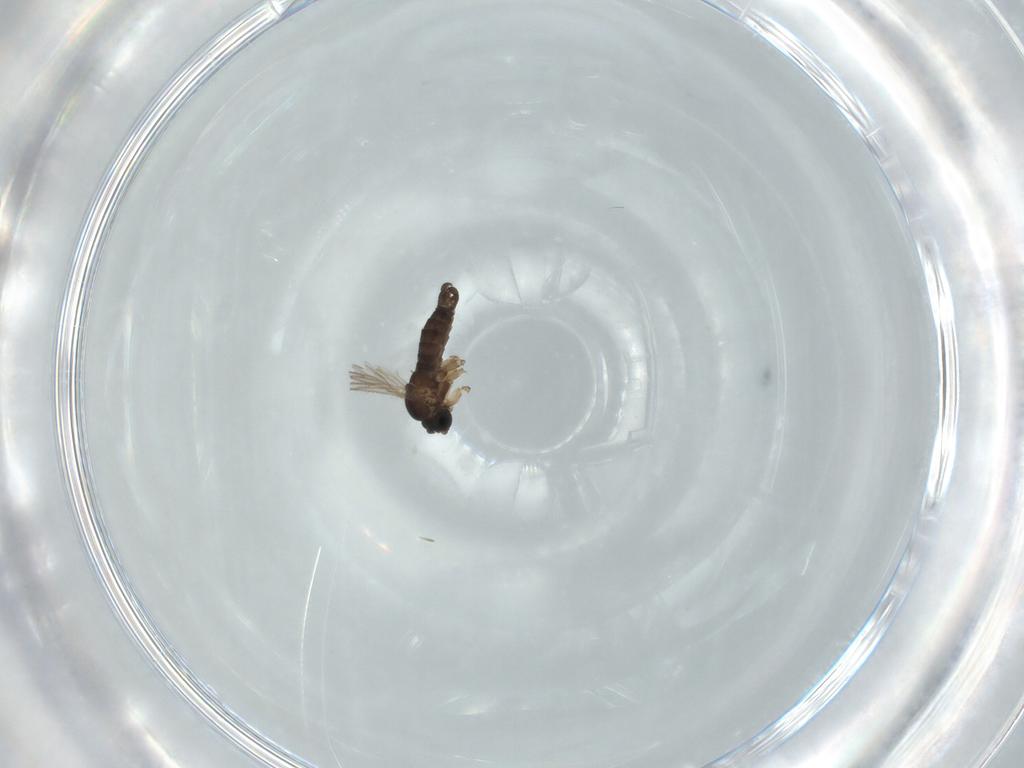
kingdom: Animalia
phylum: Arthropoda
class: Insecta
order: Diptera
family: Sciaridae
